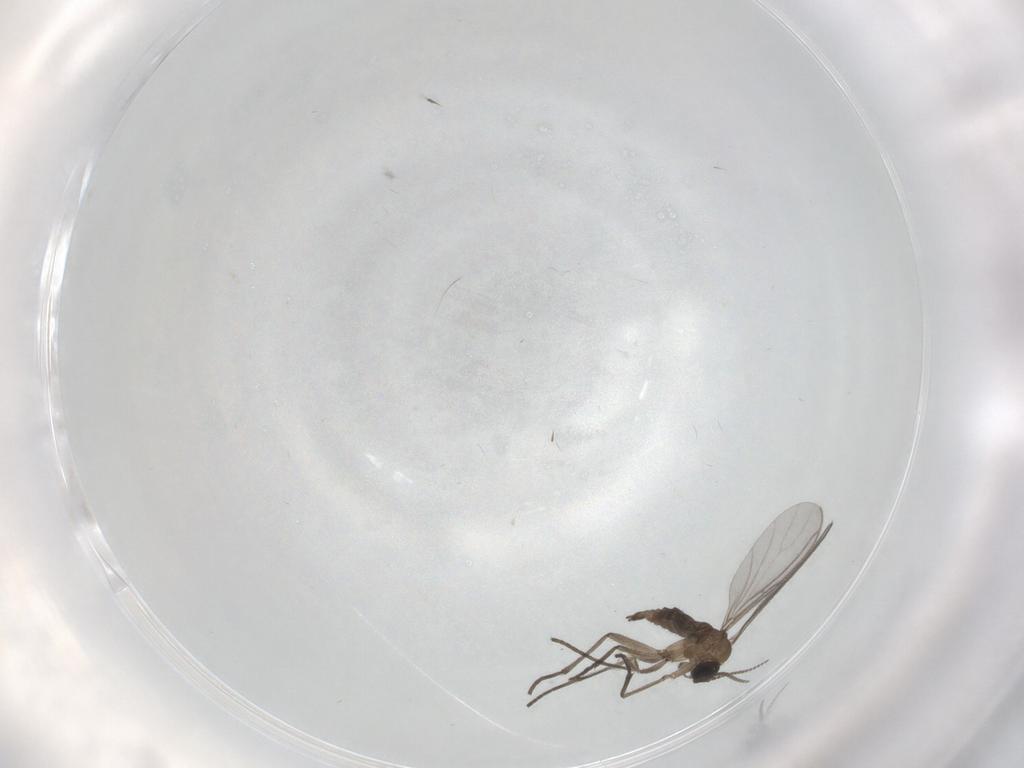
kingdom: Animalia
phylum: Arthropoda
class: Insecta
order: Diptera
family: Sciaridae
